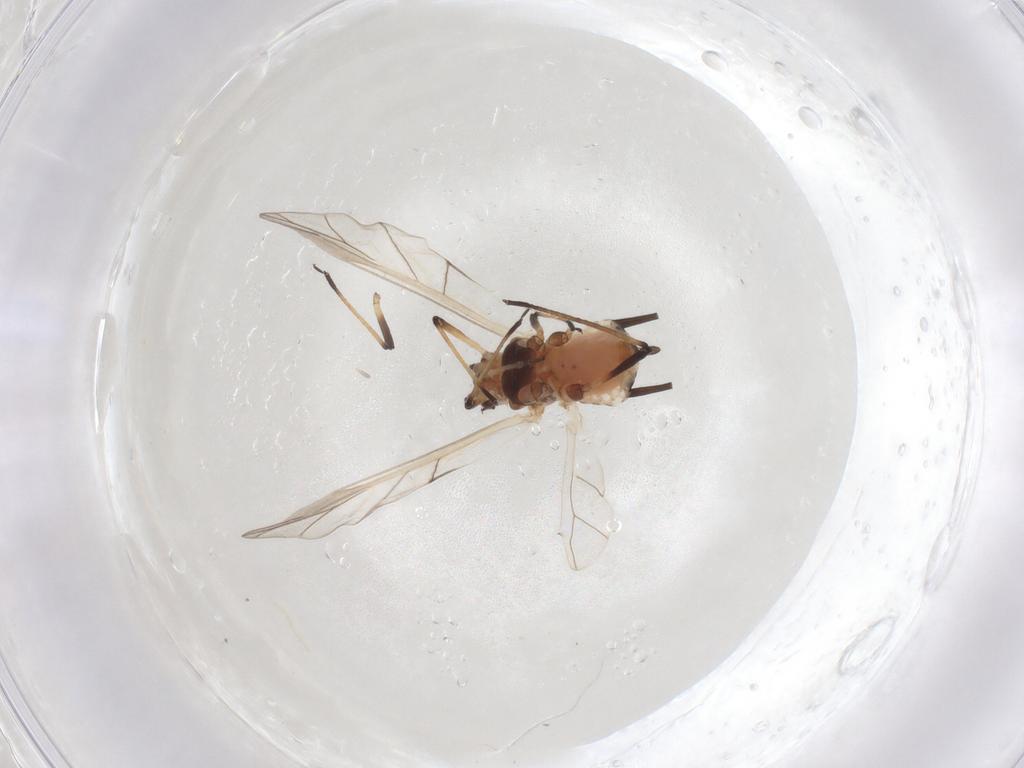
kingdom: Animalia
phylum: Arthropoda
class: Insecta
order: Hemiptera
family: Aphididae
